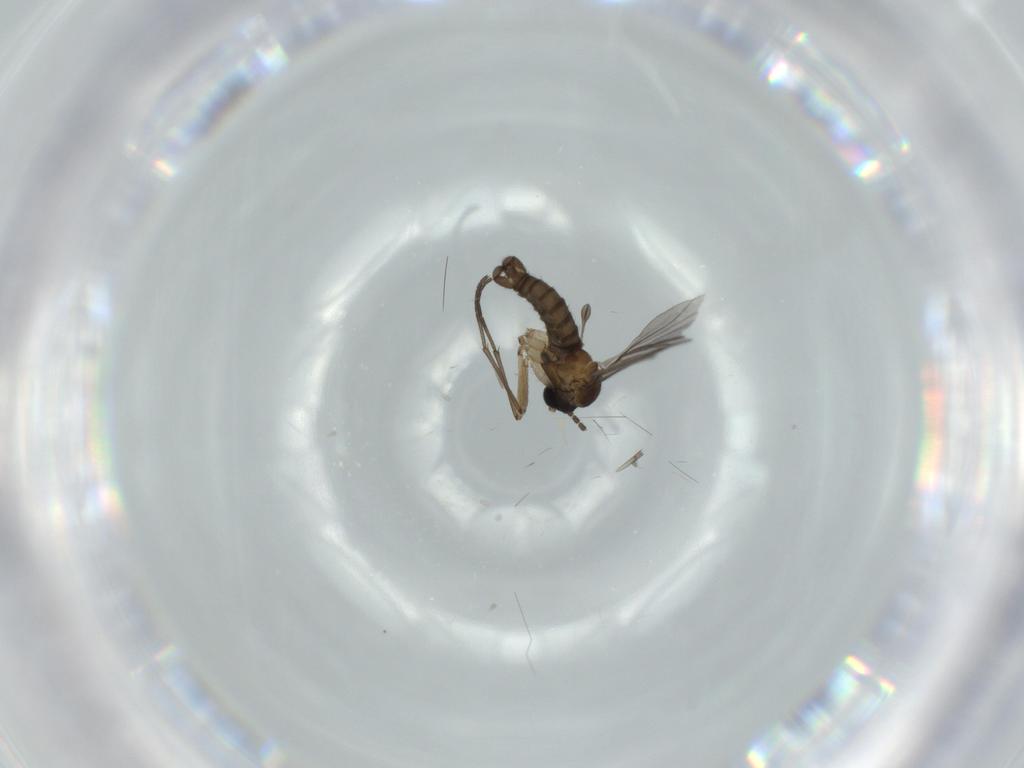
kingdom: Animalia
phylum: Arthropoda
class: Insecta
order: Diptera
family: Sciaridae
